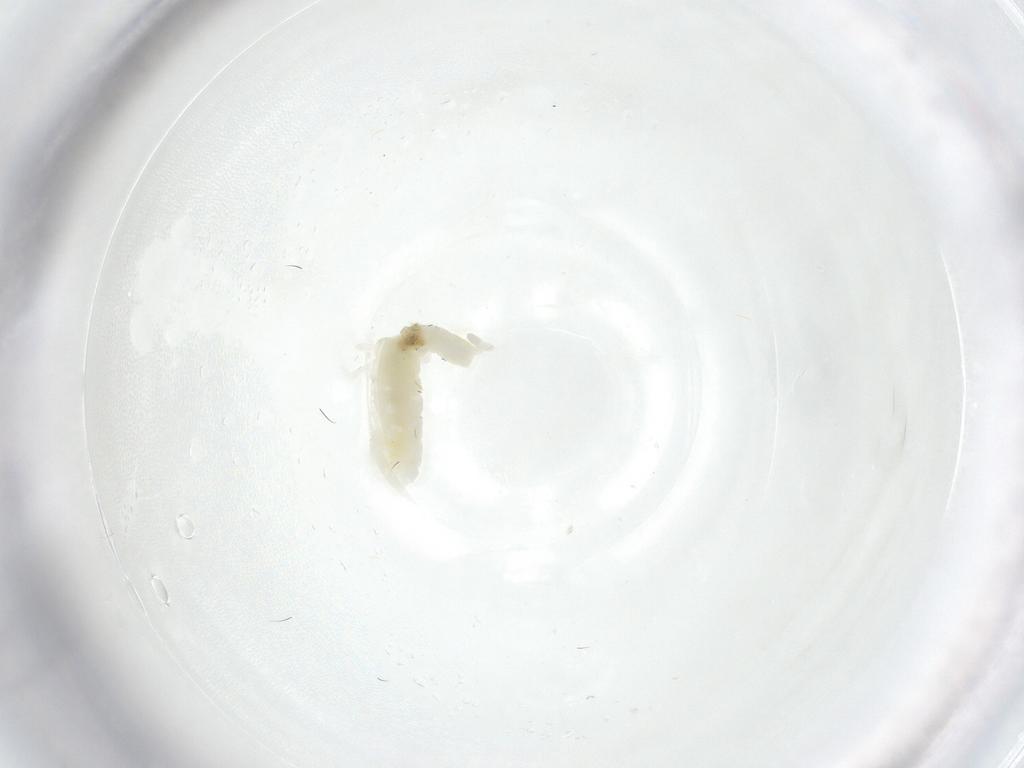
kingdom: Animalia
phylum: Arthropoda
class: Collembola
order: Poduromorpha
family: Onychiuridae
